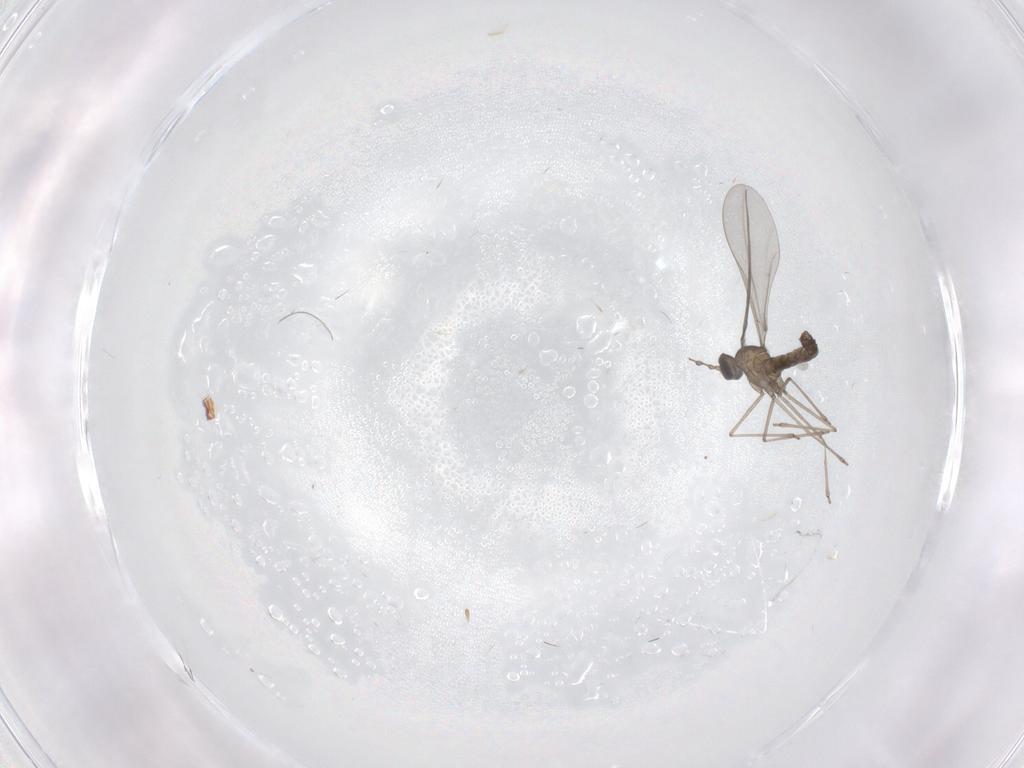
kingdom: Animalia
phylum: Arthropoda
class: Insecta
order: Diptera
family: Cecidomyiidae
